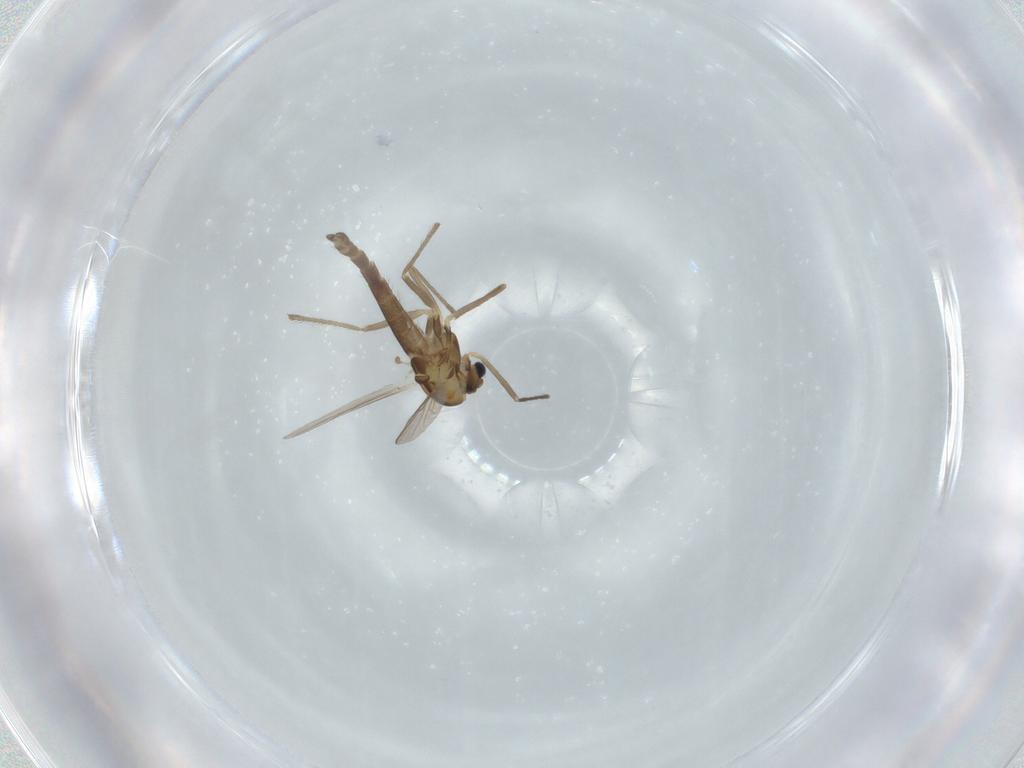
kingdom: Animalia
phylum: Arthropoda
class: Insecta
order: Diptera
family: Chironomidae
